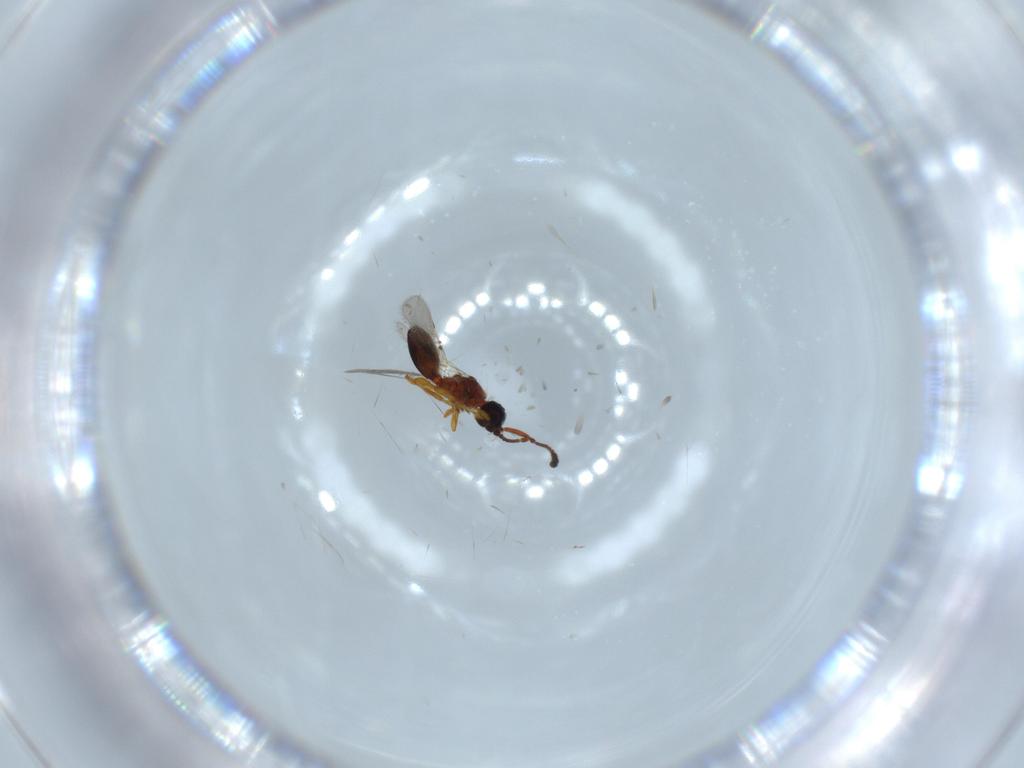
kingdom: Animalia
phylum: Arthropoda
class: Insecta
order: Hymenoptera
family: Diapriidae
